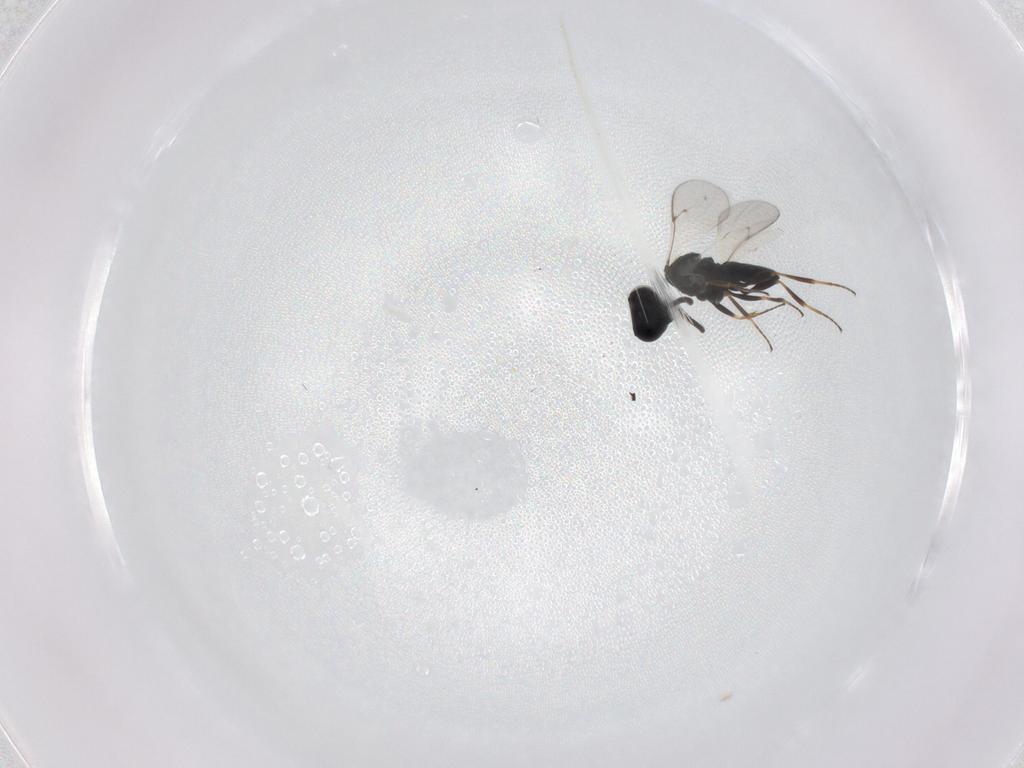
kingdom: Animalia
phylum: Arthropoda
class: Insecta
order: Hymenoptera
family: Scelionidae
